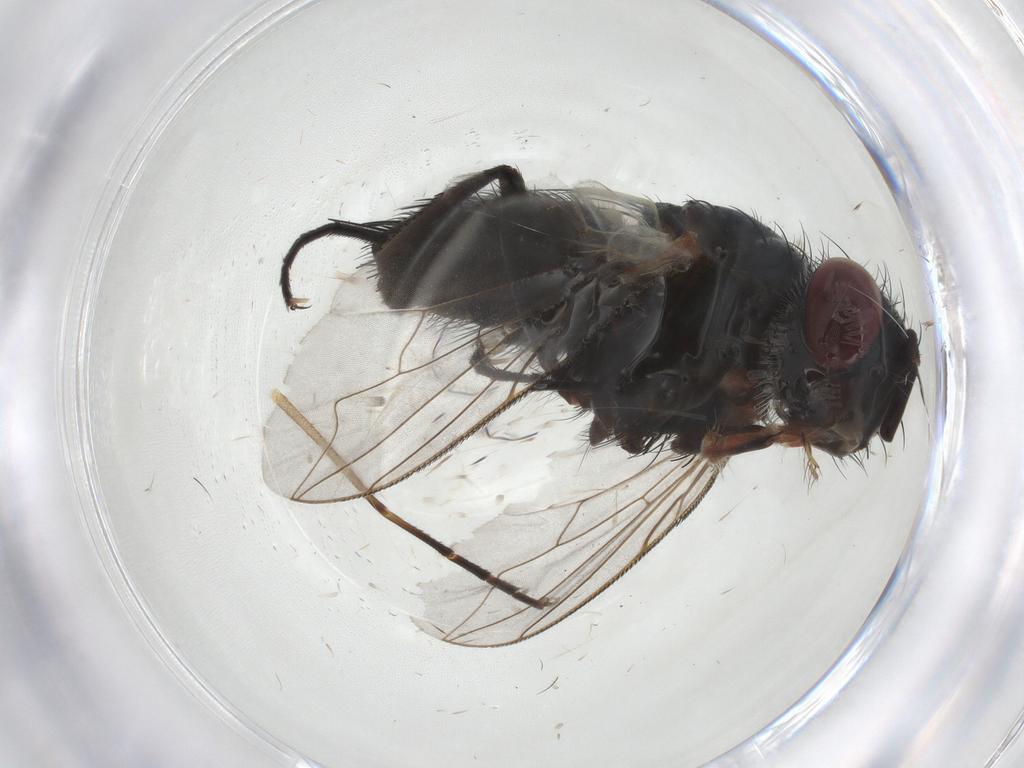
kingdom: Animalia
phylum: Arthropoda
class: Insecta
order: Diptera
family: Tachinidae
